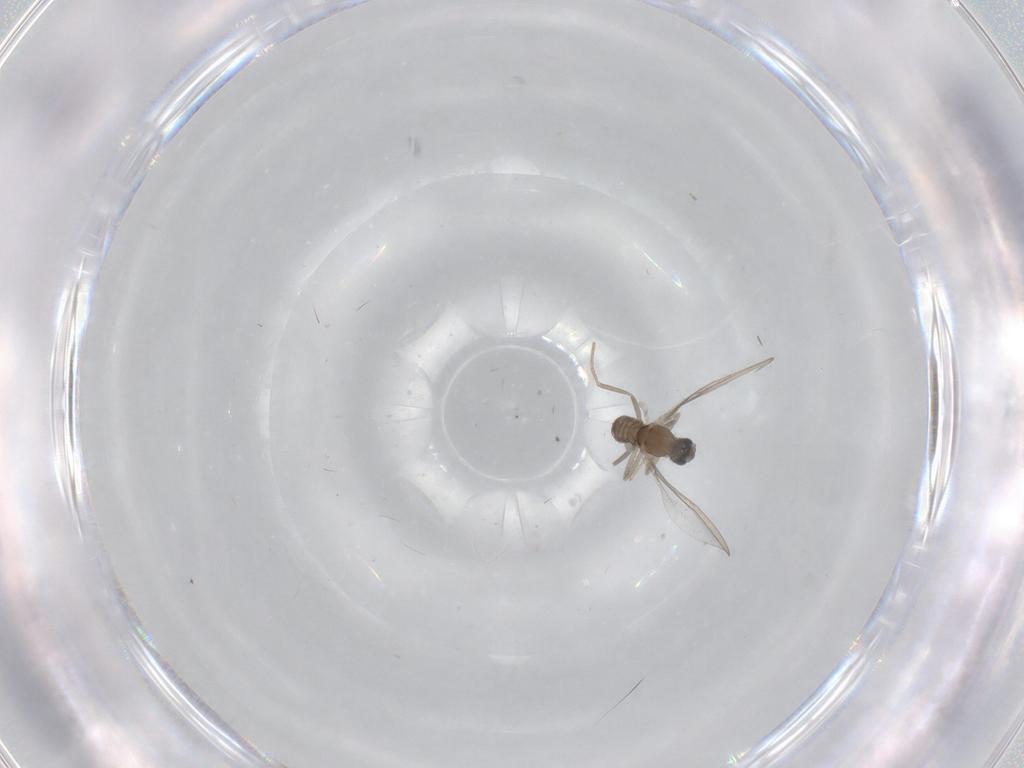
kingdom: Animalia
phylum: Arthropoda
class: Insecta
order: Diptera
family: Cecidomyiidae
